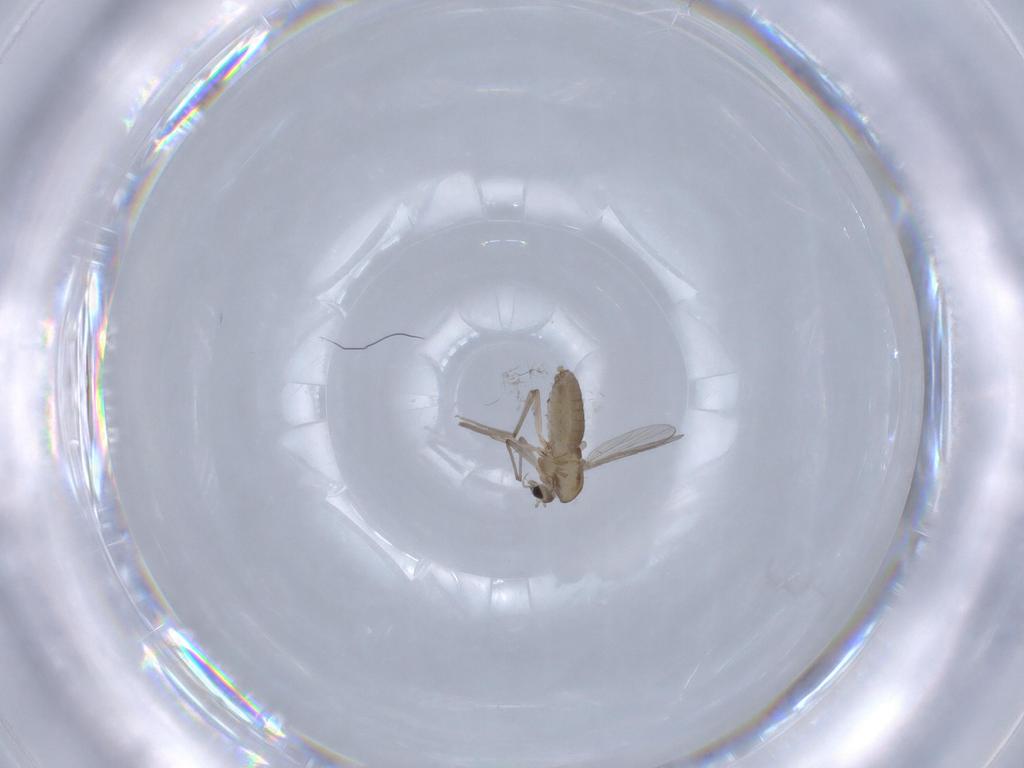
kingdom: Animalia
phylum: Arthropoda
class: Insecta
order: Diptera
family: Chironomidae
